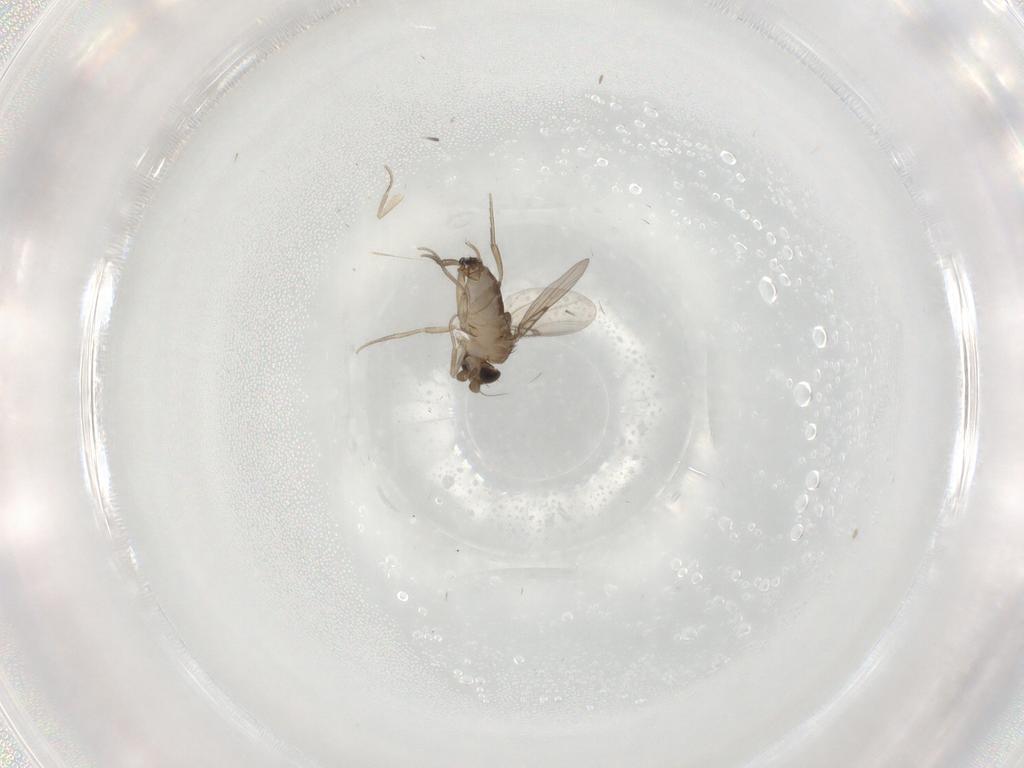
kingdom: Animalia
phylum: Arthropoda
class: Insecta
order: Diptera
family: Phoridae
